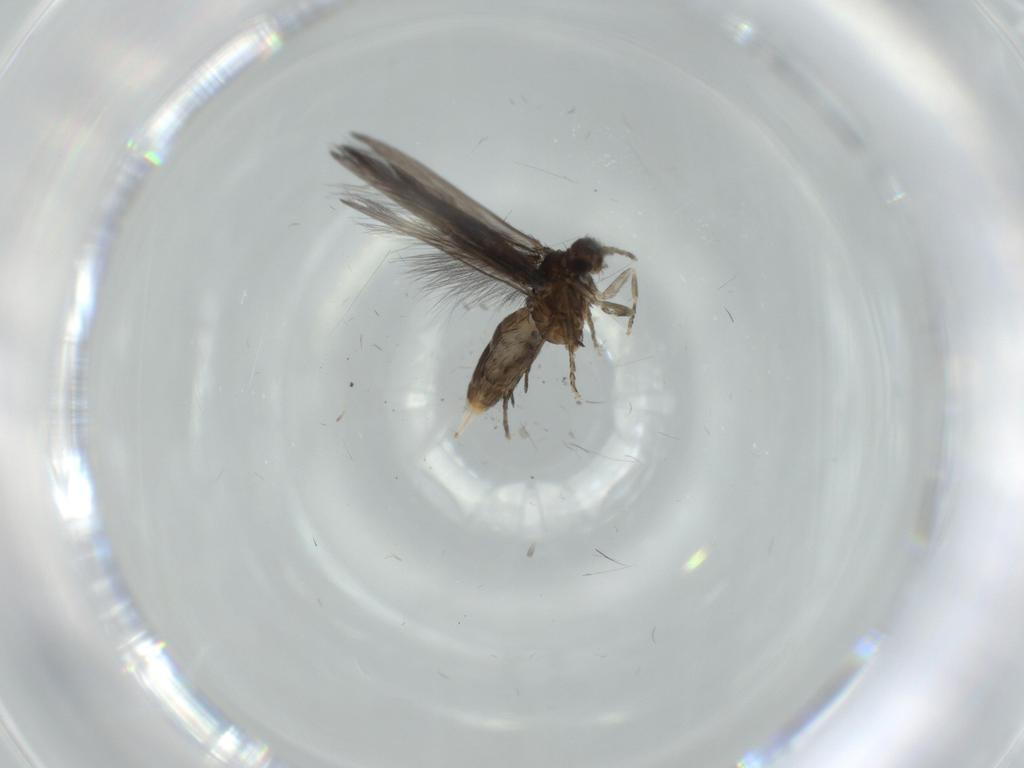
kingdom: Animalia
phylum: Arthropoda
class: Insecta
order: Trichoptera
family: Hydroptilidae
